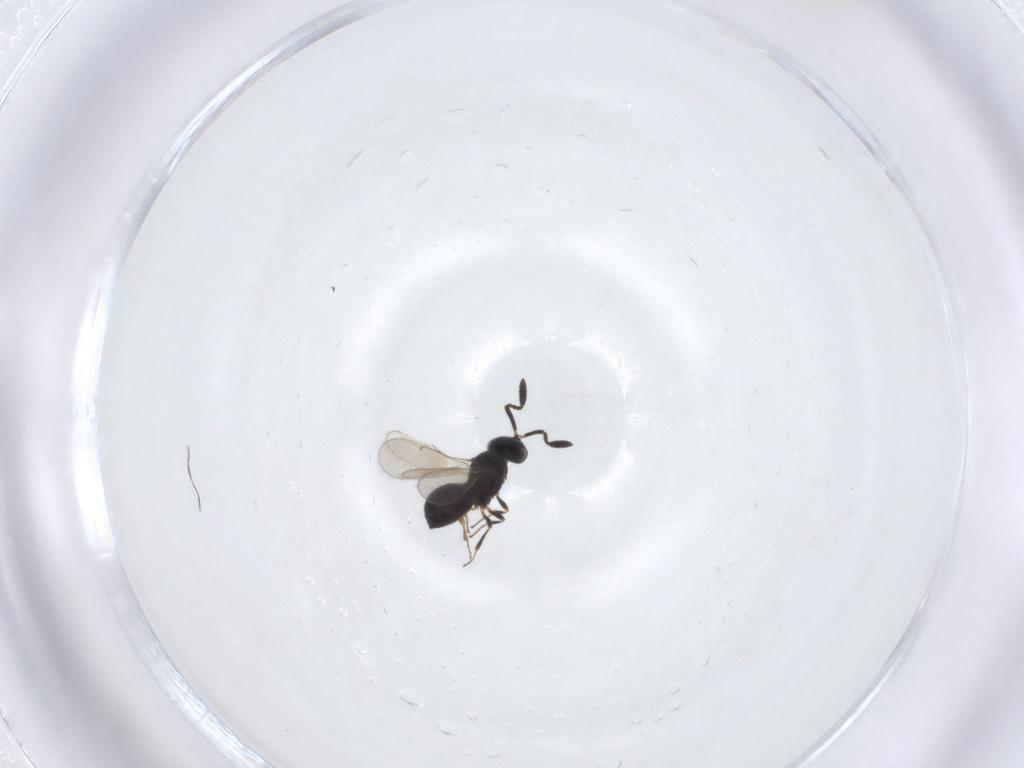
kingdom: Animalia
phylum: Arthropoda
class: Insecta
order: Hymenoptera
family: Scelionidae
